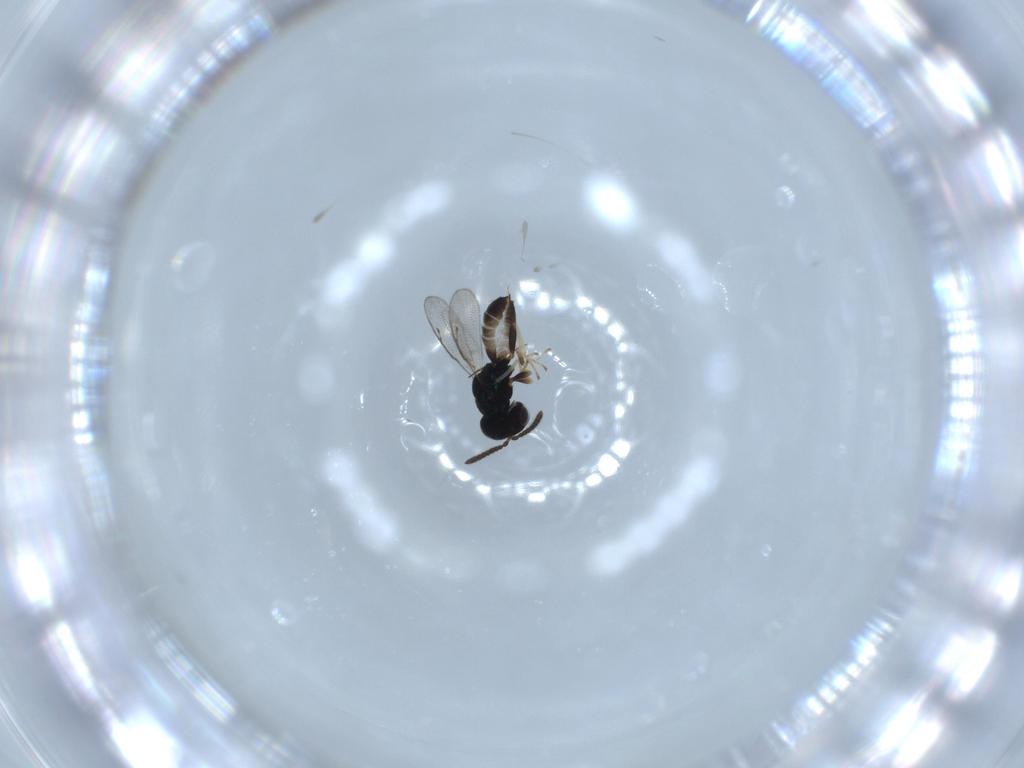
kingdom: Animalia
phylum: Arthropoda
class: Insecta
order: Hymenoptera
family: Pteromalidae
